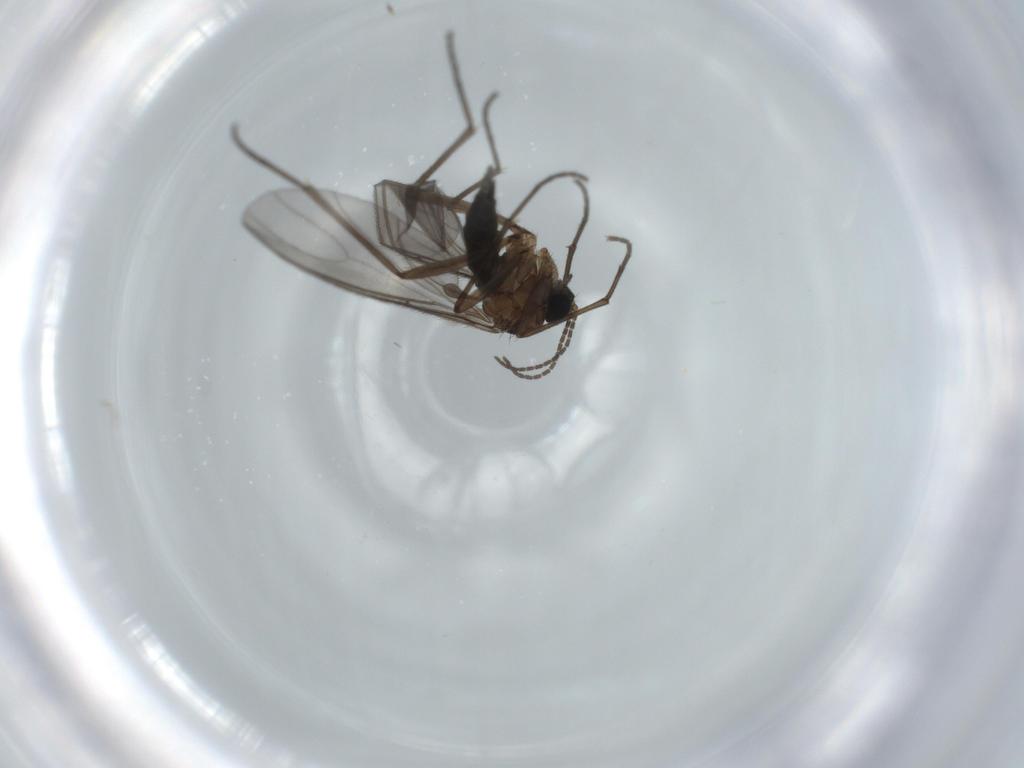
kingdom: Animalia
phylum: Arthropoda
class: Insecta
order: Diptera
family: Sciaridae
